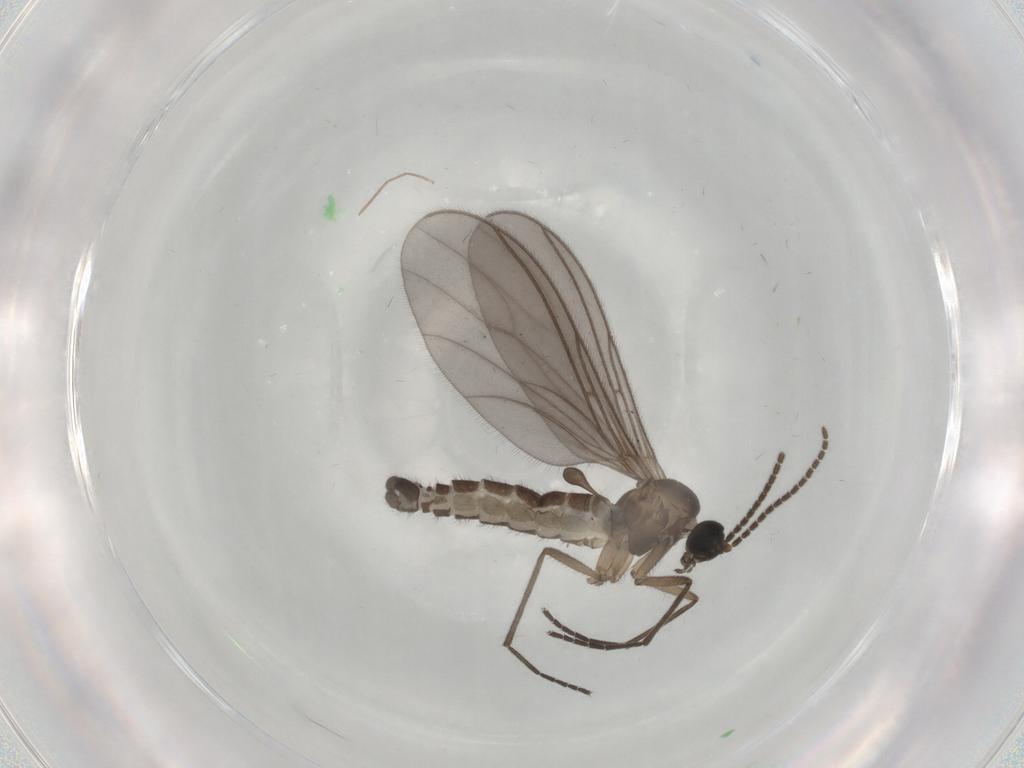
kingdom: Animalia
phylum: Arthropoda
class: Insecta
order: Diptera
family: Sciaridae
